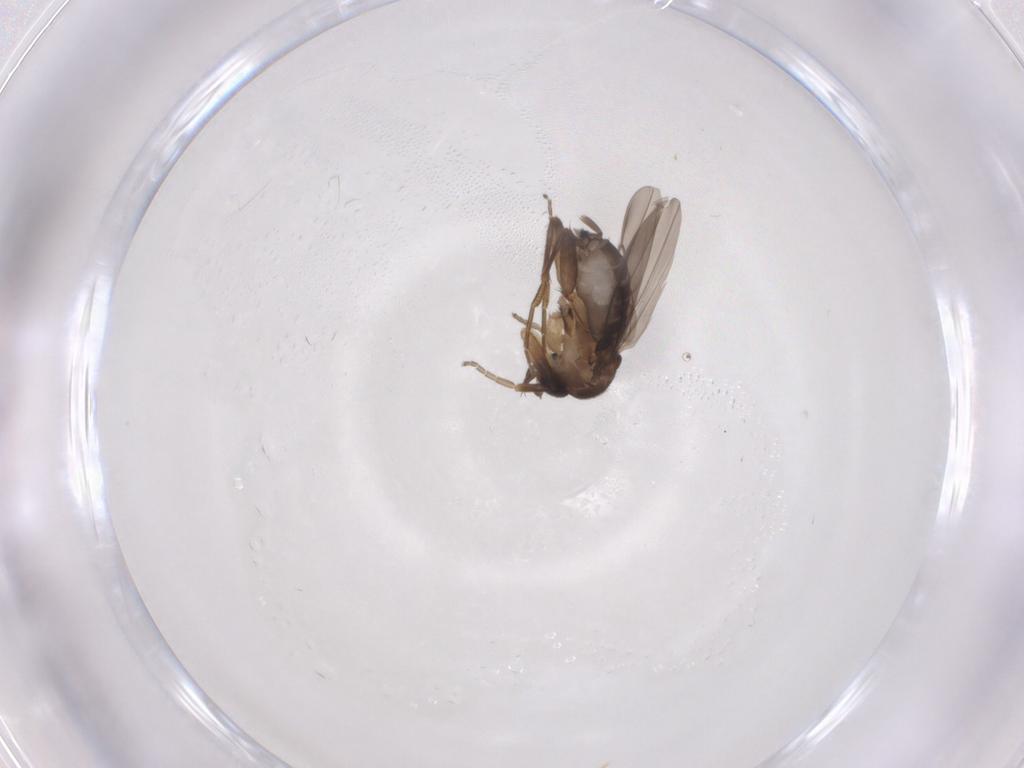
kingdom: Animalia
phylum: Arthropoda
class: Insecta
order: Diptera
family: Phoridae
